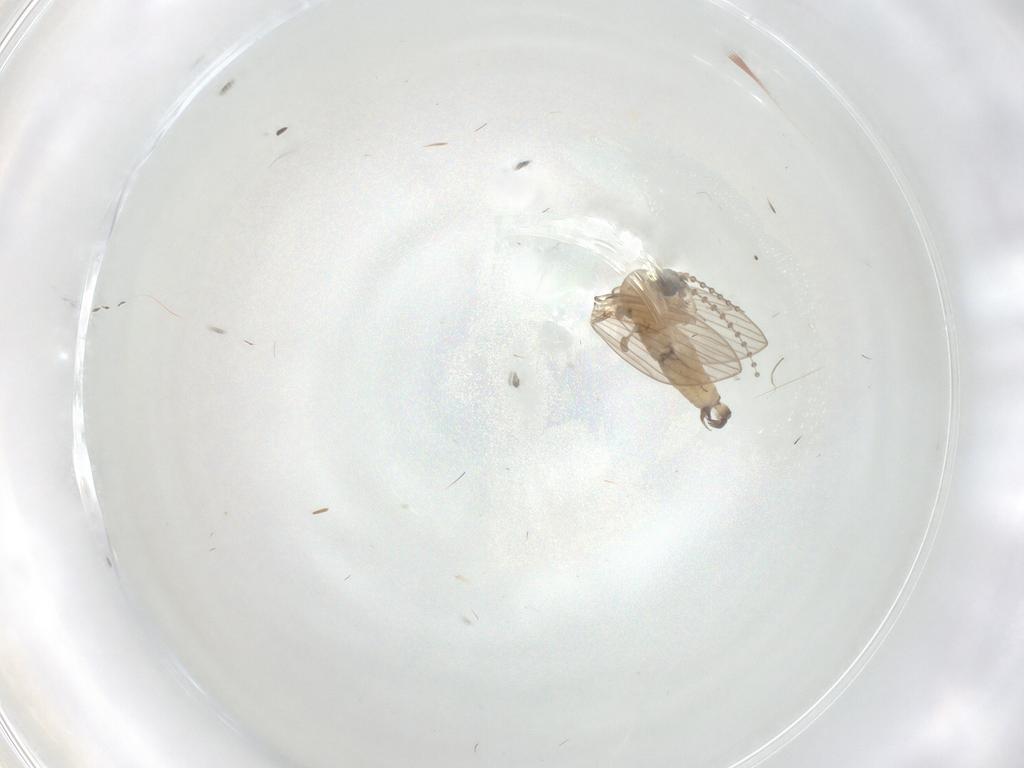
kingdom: Animalia
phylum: Arthropoda
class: Insecta
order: Diptera
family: Psychodidae
